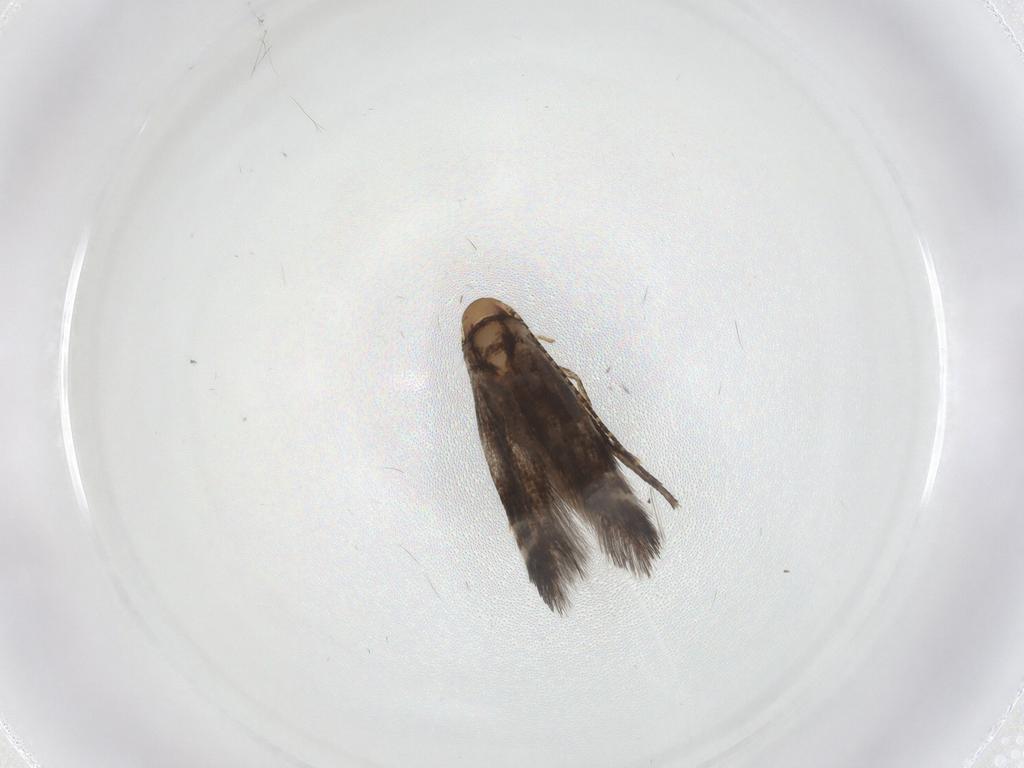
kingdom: Animalia
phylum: Arthropoda
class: Insecta
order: Lepidoptera
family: Momphidae
